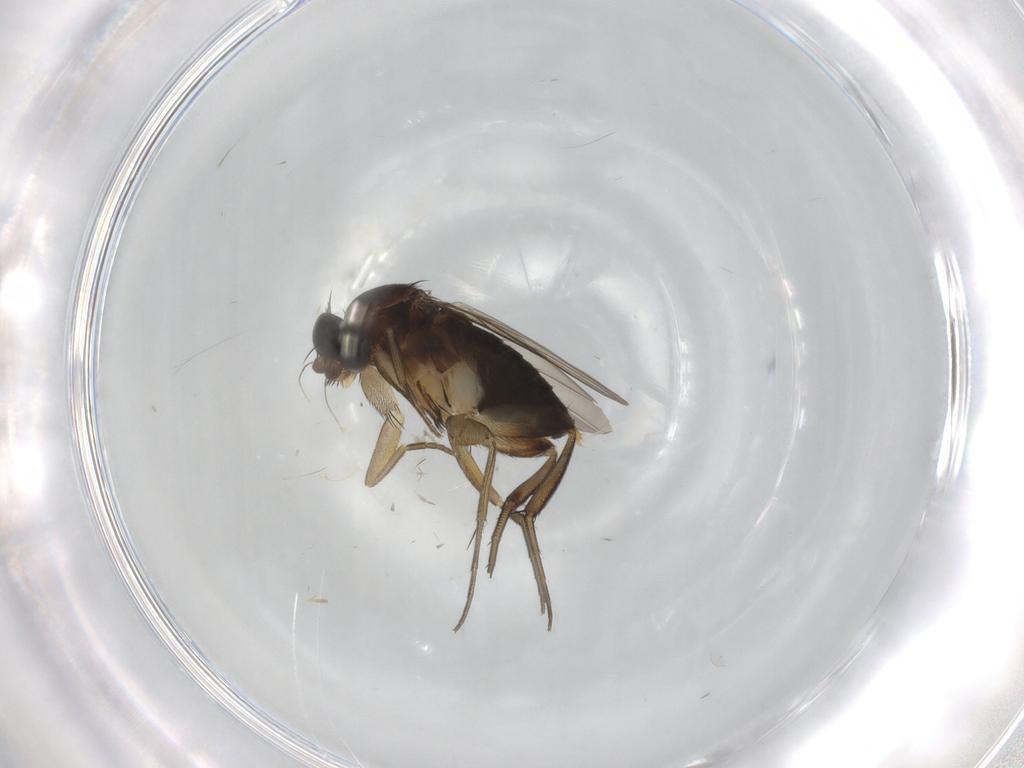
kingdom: Animalia
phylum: Arthropoda
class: Insecta
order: Diptera
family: Phoridae
